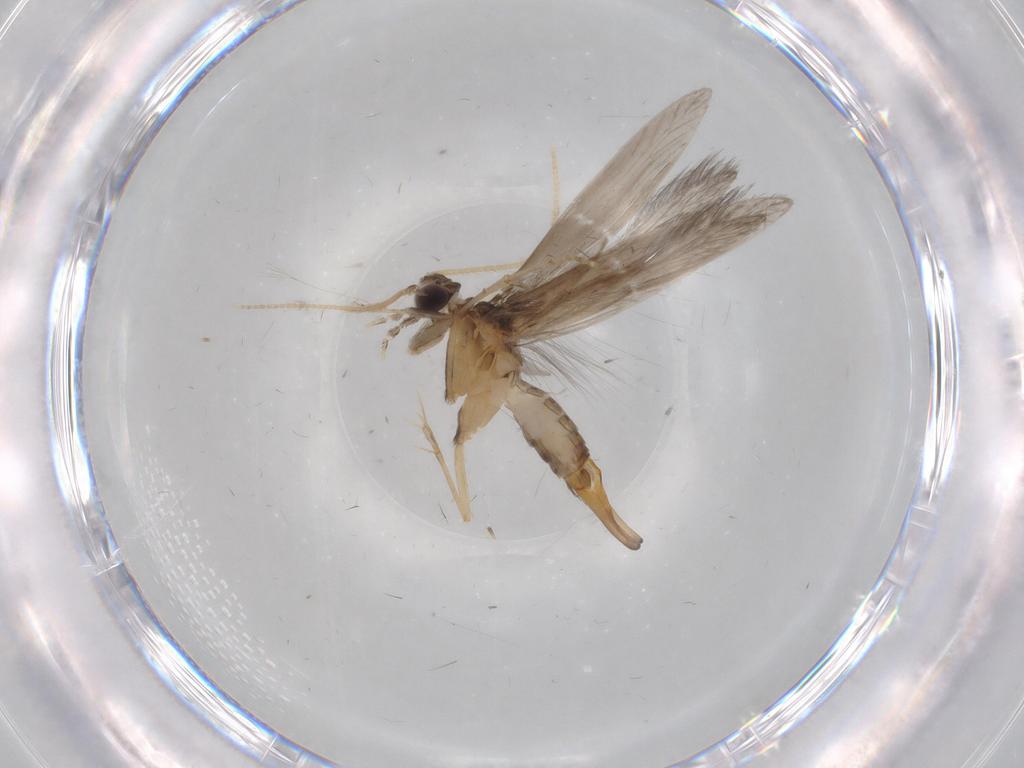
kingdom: Animalia
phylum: Arthropoda
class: Insecta
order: Trichoptera
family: Hydroptilidae
